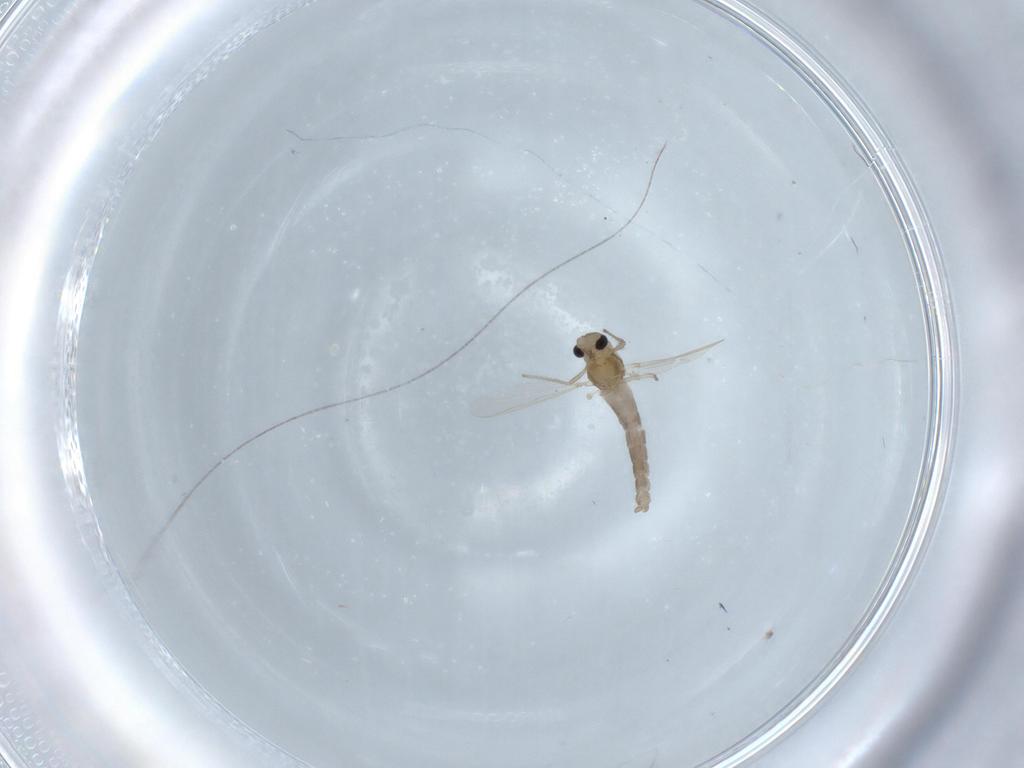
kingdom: Animalia
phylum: Arthropoda
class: Insecta
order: Diptera
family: Chironomidae
